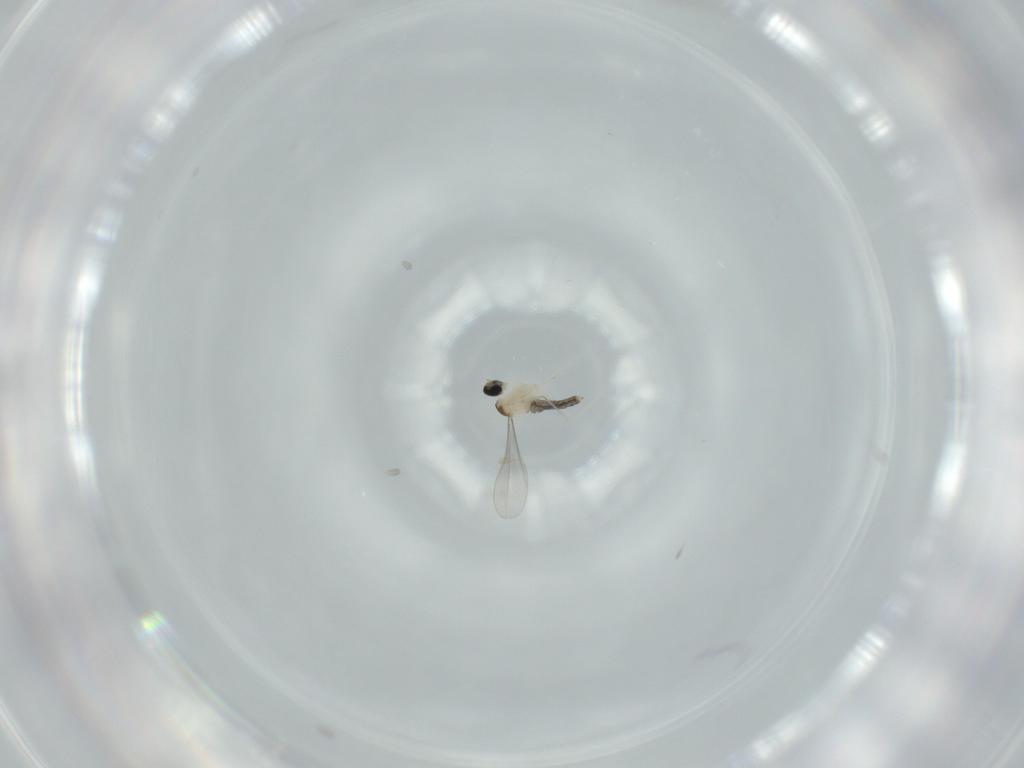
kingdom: Animalia
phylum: Arthropoda
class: Insecta
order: Diptera
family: Cecidomyiidae
